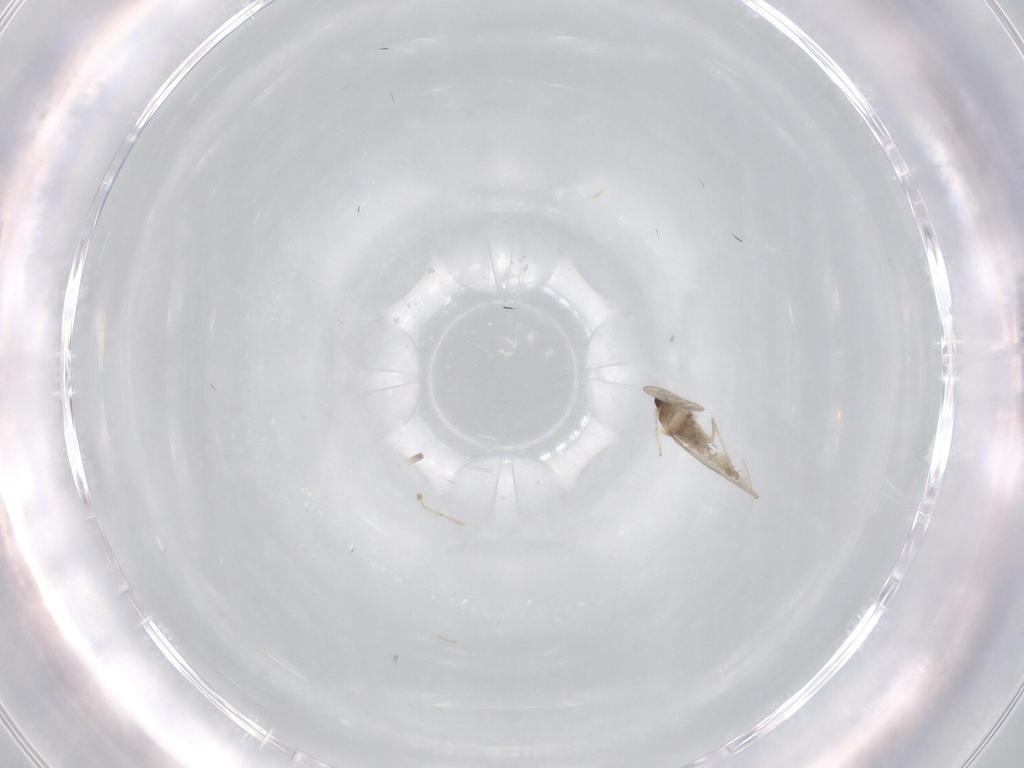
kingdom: Animalia
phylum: Arthropoda
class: Insecta
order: Diptera
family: Cecidomyiidae
